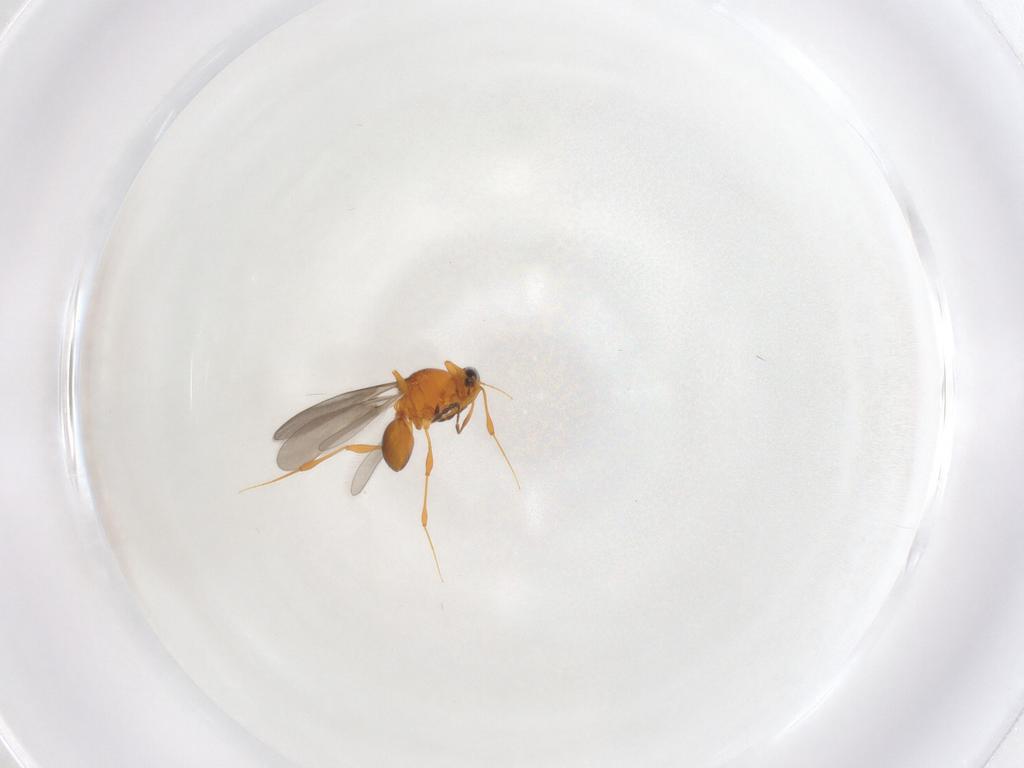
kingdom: Animalia
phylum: Arthropoda
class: Insecta
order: Hymenoptera
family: Platygastridae
